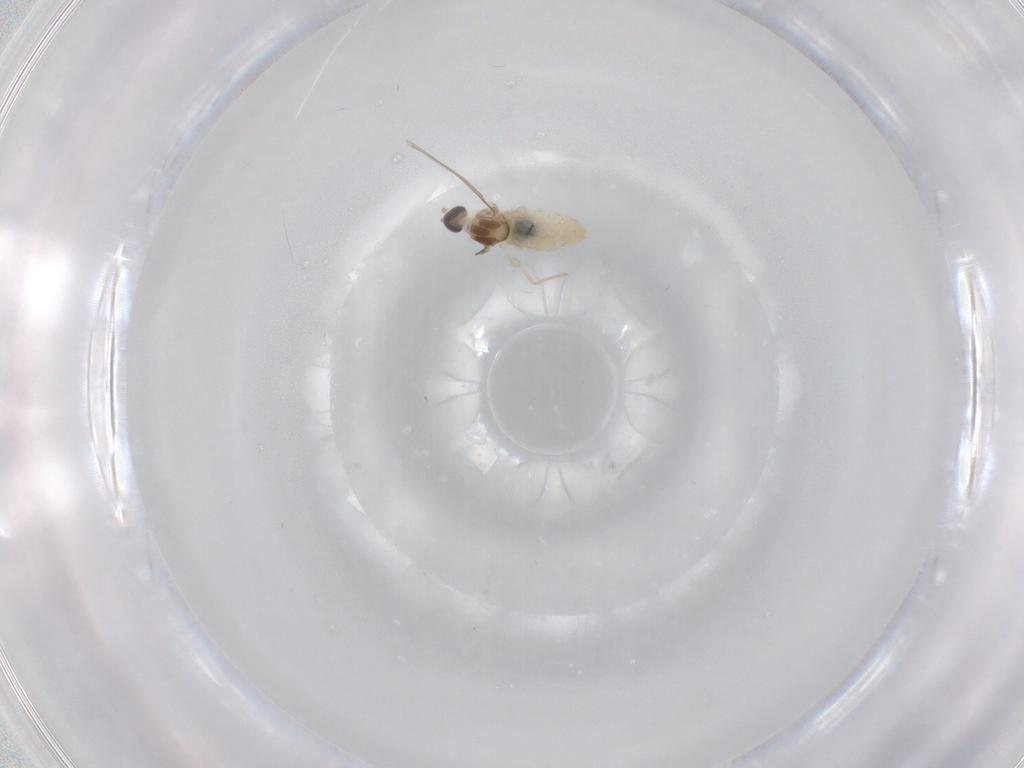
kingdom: Animalia
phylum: Arthropoda
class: Insecta
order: Diptera
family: Cecidomyiidae
